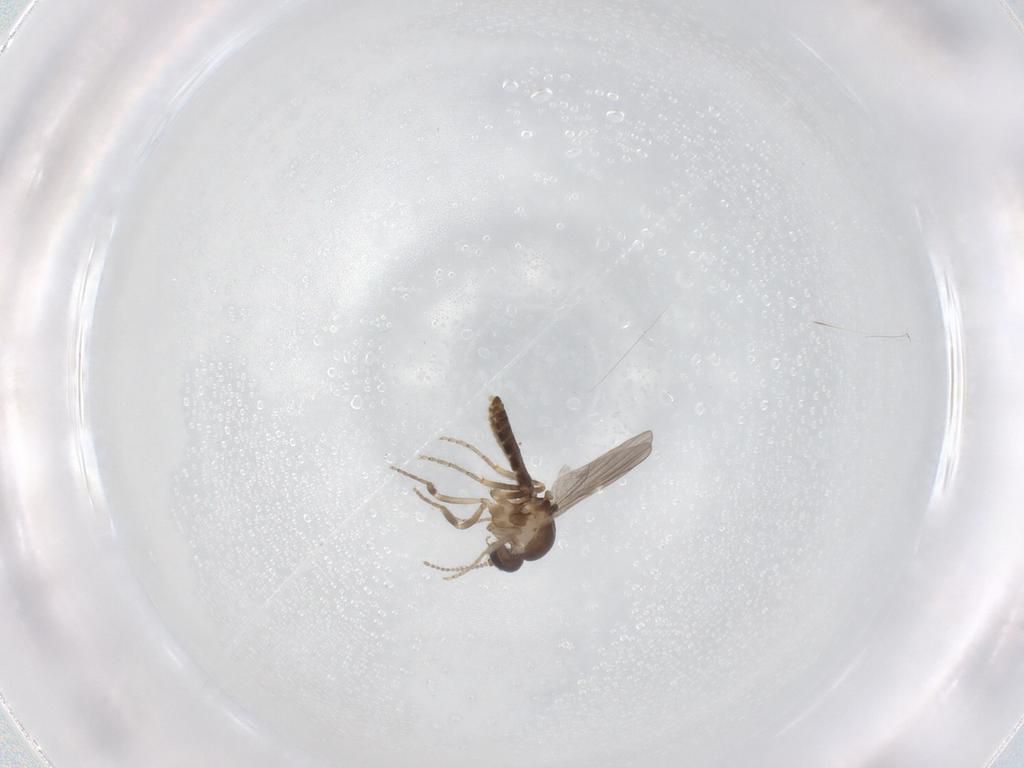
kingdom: Animalia
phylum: Arthropoda
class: Insecta
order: Diptera
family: Ceratopogonidae
